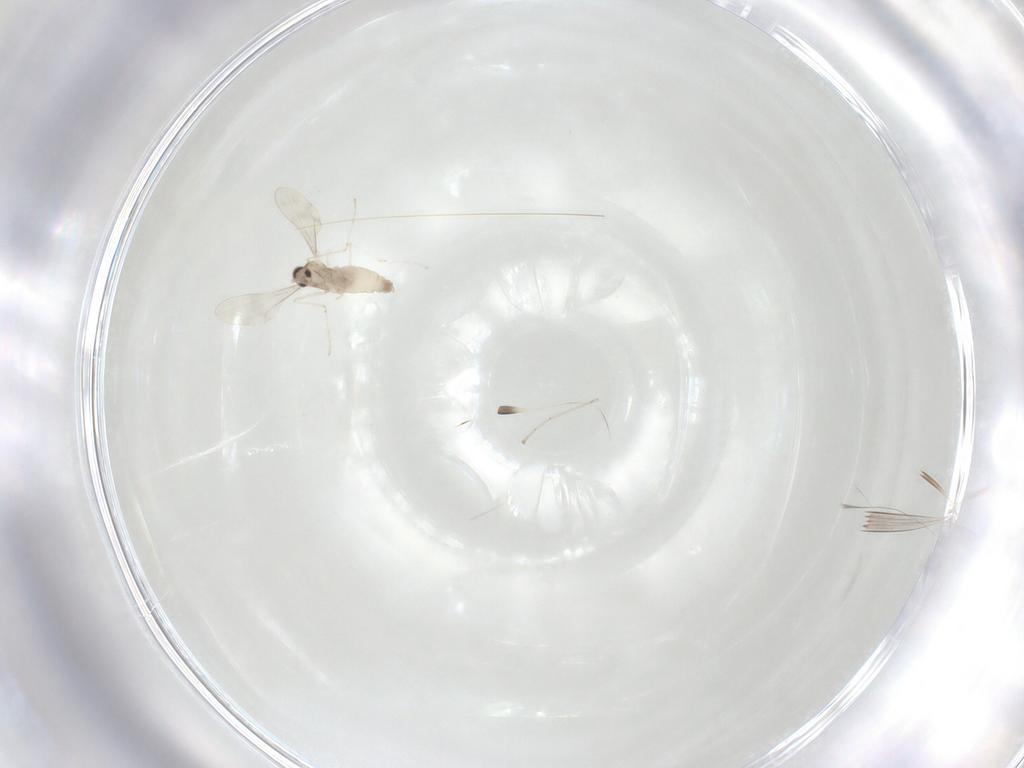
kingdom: Animalia
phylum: Arthropoda
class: Insecta
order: Diptera
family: Cecidomyiidae
